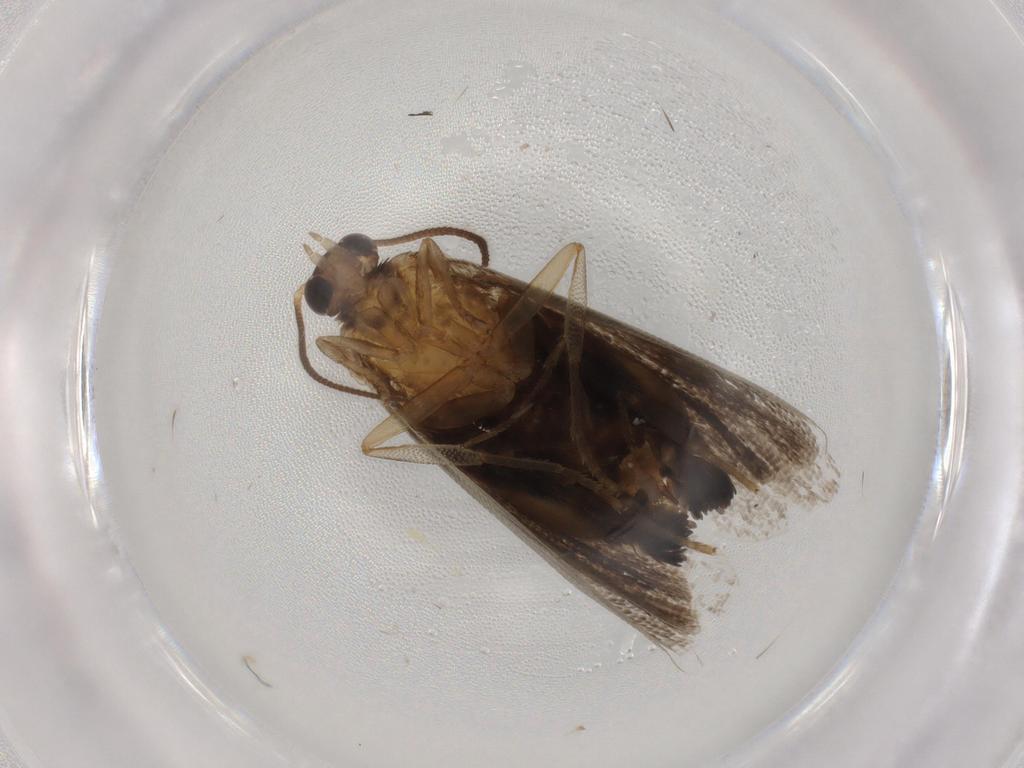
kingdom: Animalia
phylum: Arthropoda
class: Insecta
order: Lepidoptera
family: Tortricidae
